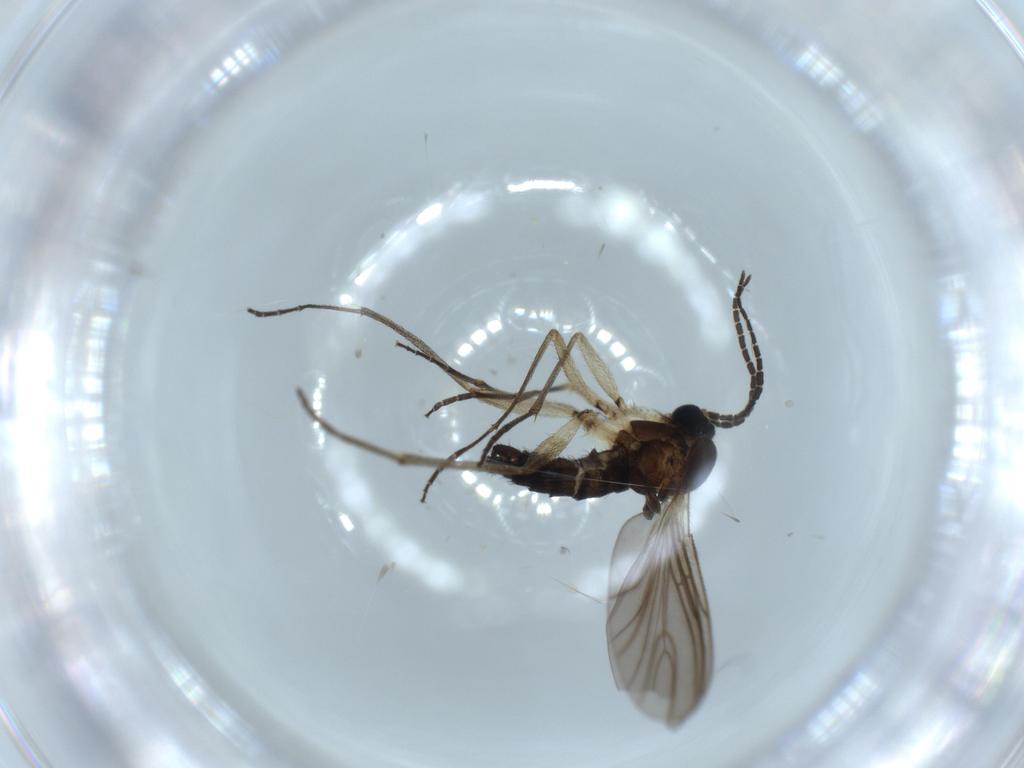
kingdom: Animalia
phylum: Arthropoda
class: Insecta
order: Diptera
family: Sciaridae
